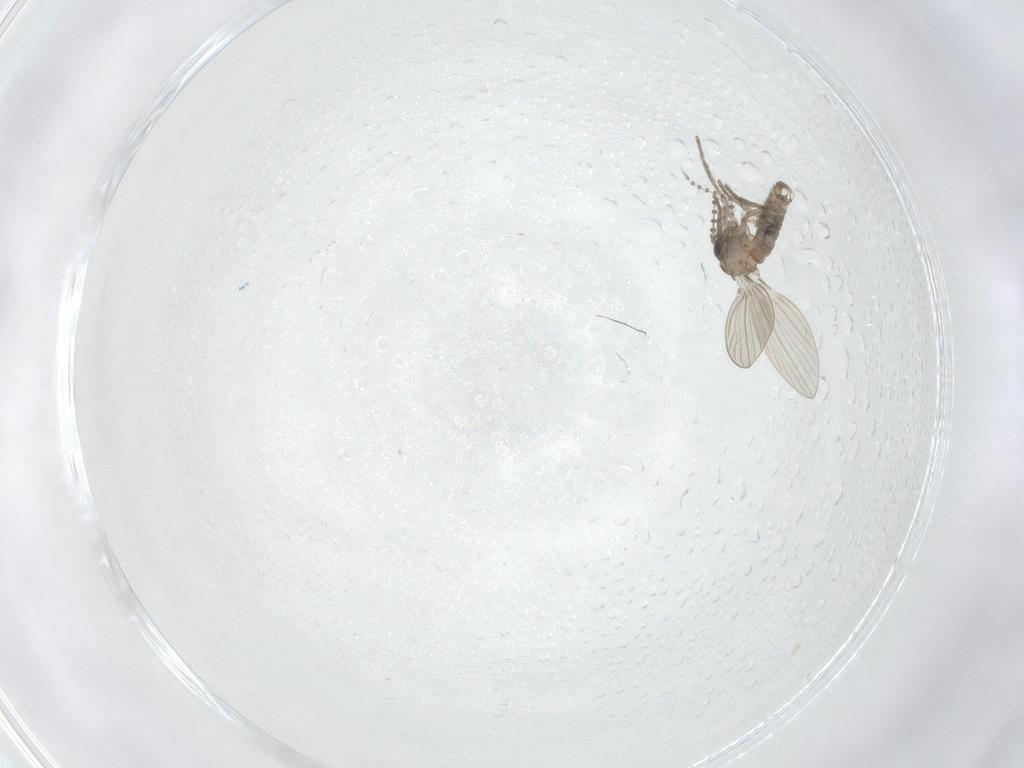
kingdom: Animalia
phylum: Arthropoda
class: Insecta
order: Diptera
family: Psychodidae
